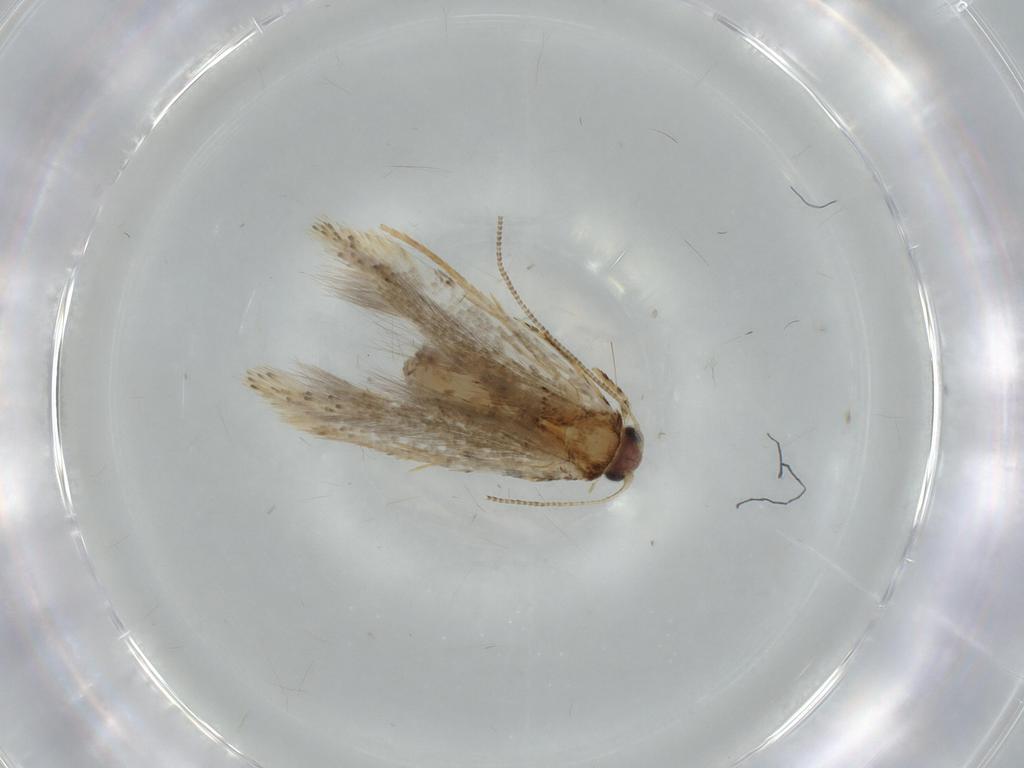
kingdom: Animalia
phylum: Arthropoda
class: Insecta
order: Lepidoptera
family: Tineidae
